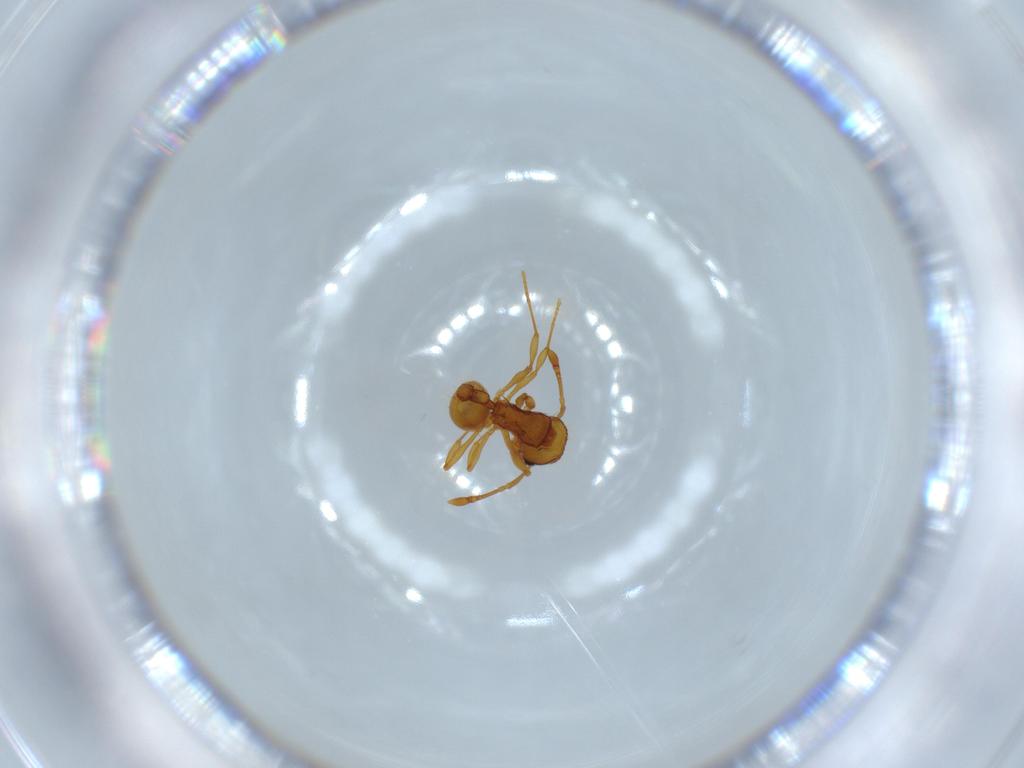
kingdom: Animalia
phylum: Arthropoda
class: Insecta
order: Hymenoptera
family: Formicidae
